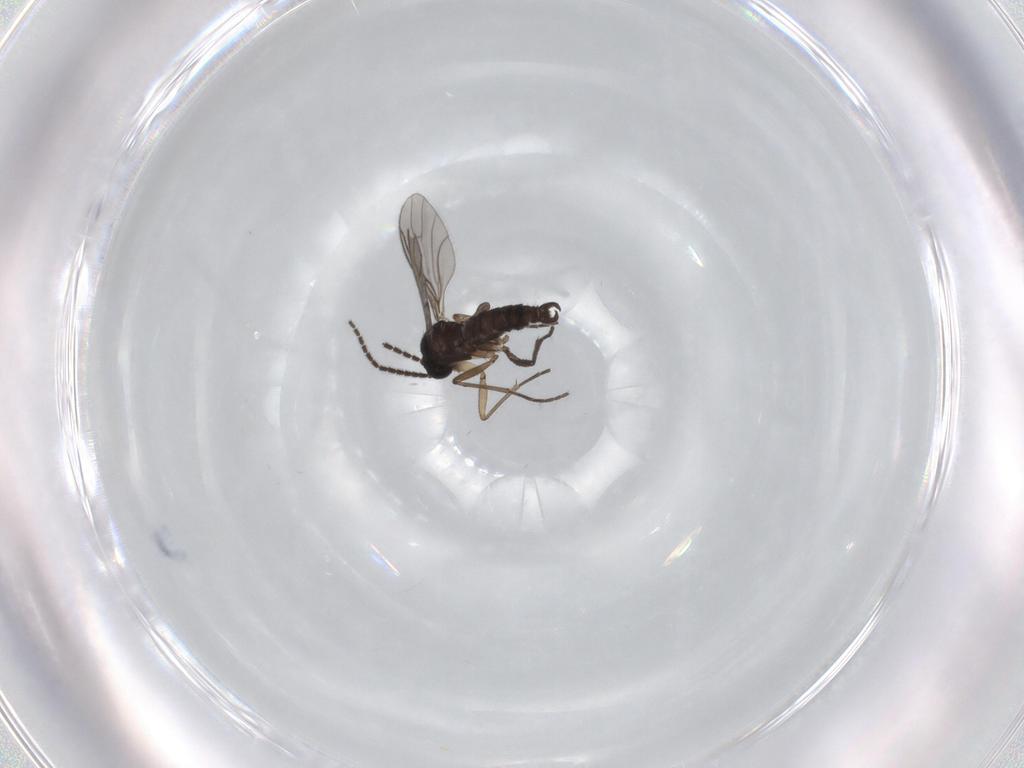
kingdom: Animalia
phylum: Arthropoda
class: Insecta
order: Diptera
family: Sciaridae
